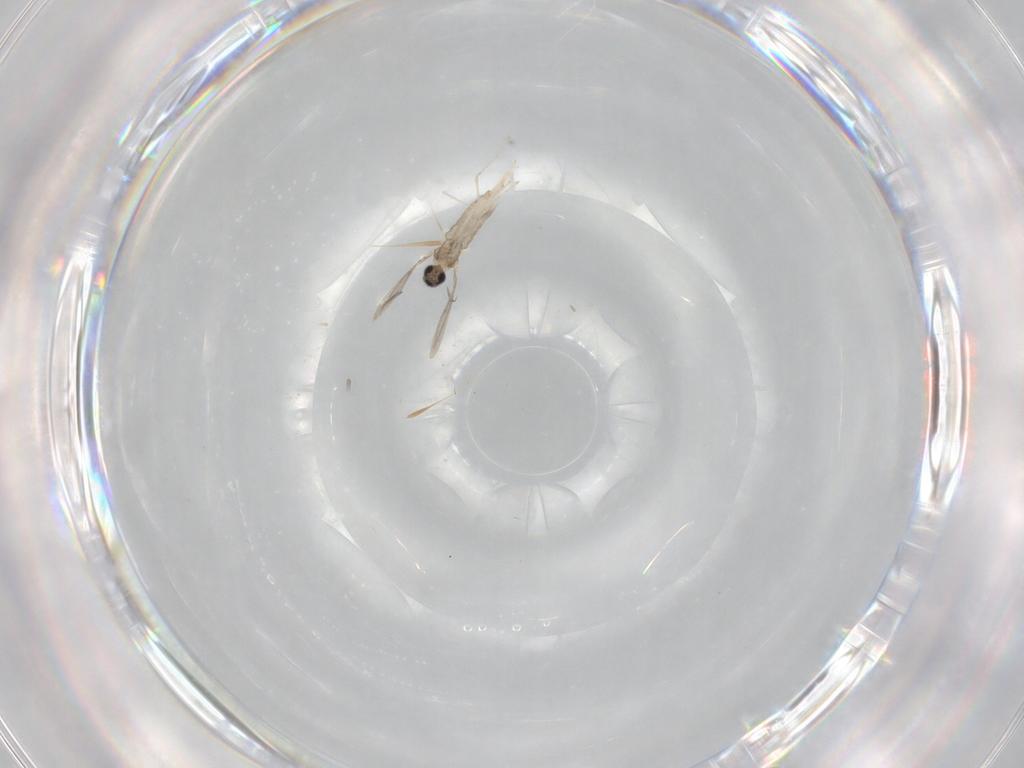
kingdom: Animalia
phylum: Arthropoda
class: Insecta
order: Diptera
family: Cecidomyiidae
